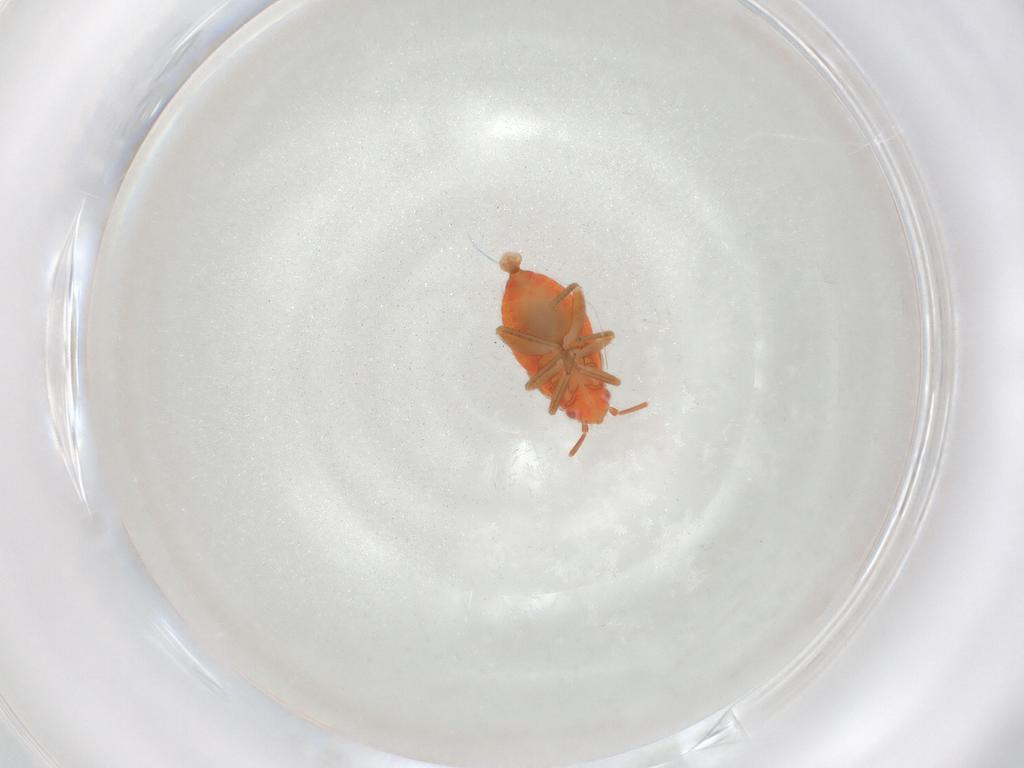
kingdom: Animalia
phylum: Arthropoda
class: Insecta
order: Hemiptera
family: Miridae
